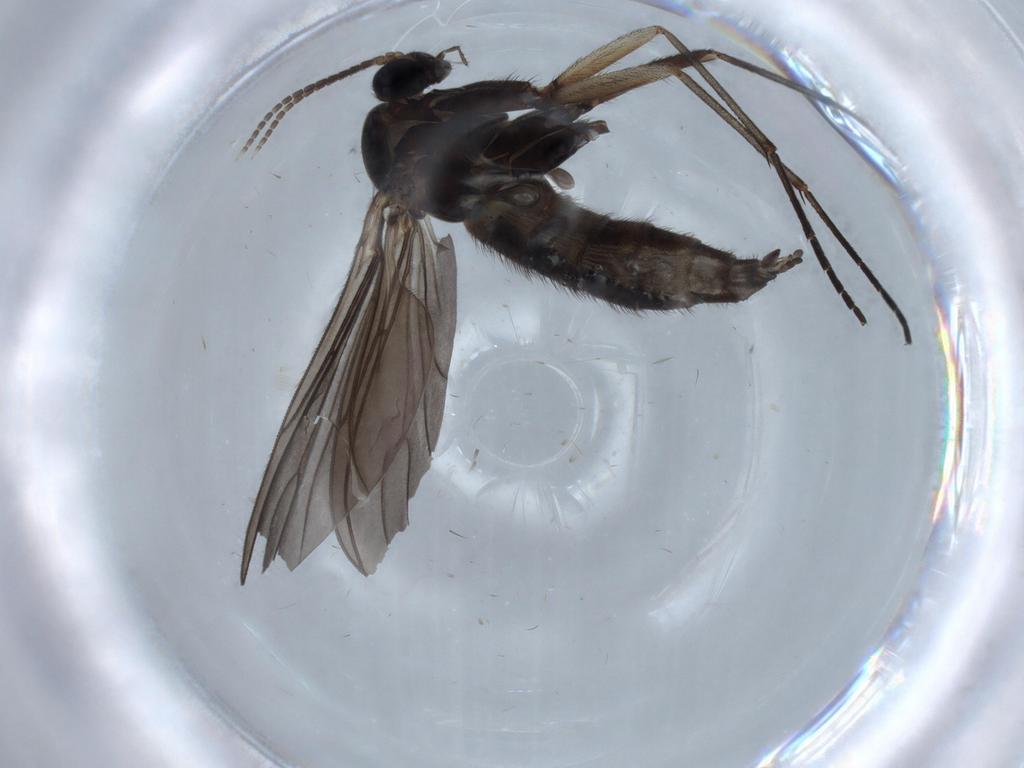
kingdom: Animalia
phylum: Arthropoda
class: Insecta
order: Diptera
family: Sciaridae
